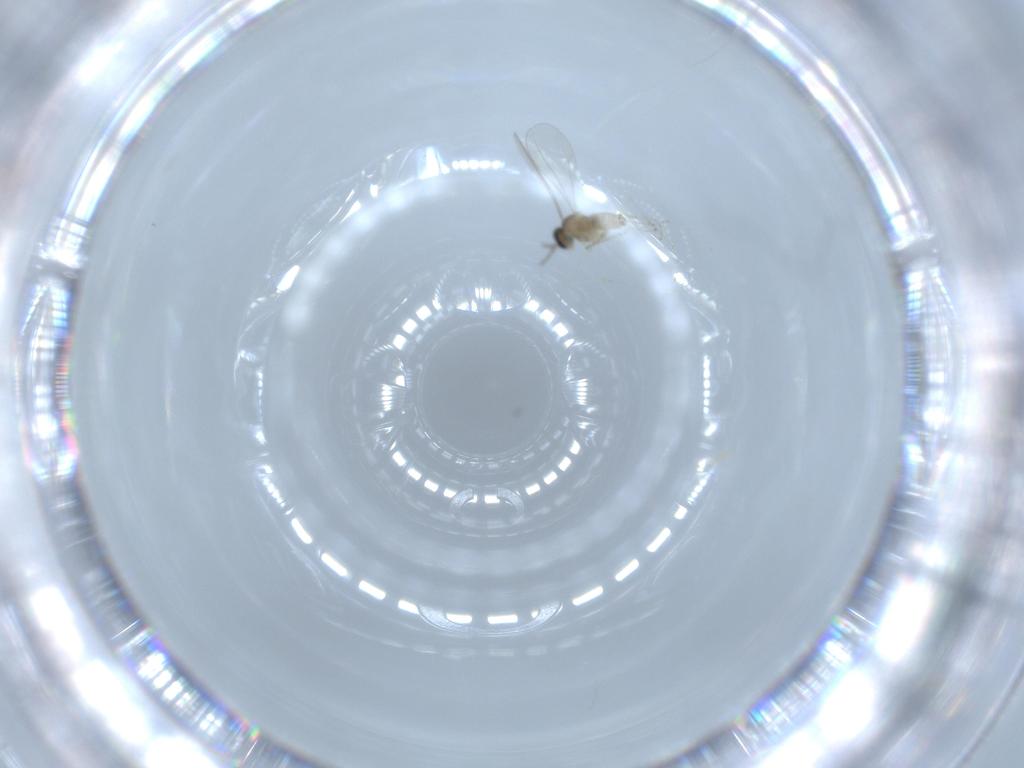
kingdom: Animalia
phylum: Arthropoda
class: Insecta
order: Diptera
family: Cecidomyiidae
